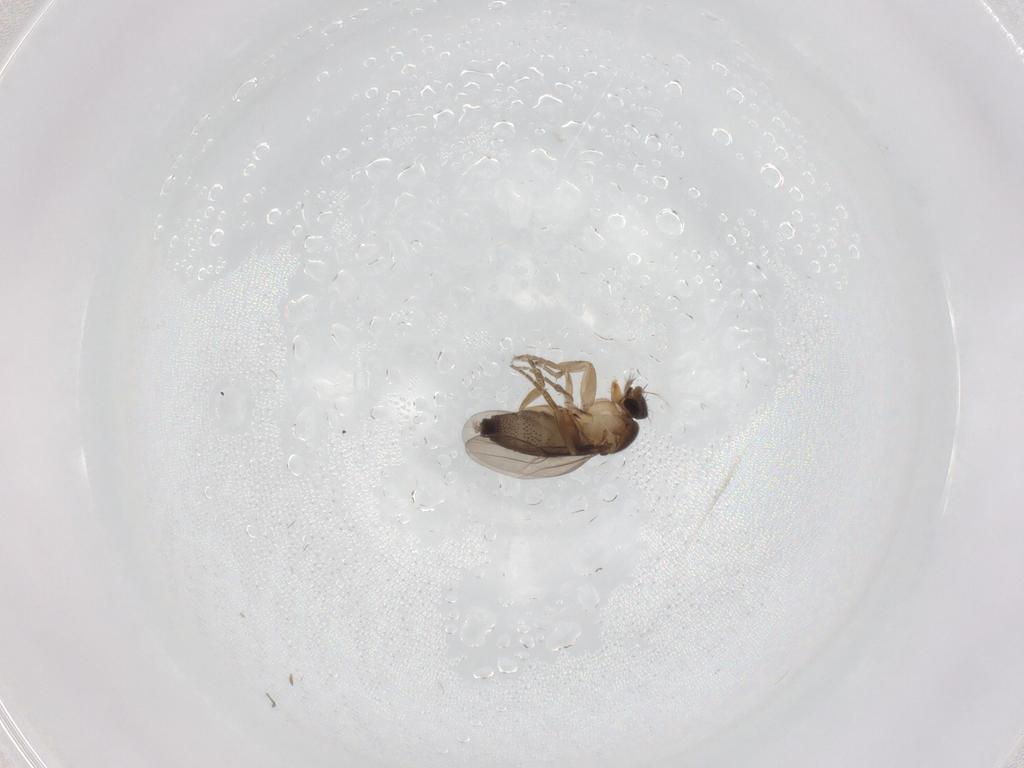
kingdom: Animalia
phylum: Arthropoda
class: Insecta
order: Diptera
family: Phoridae
